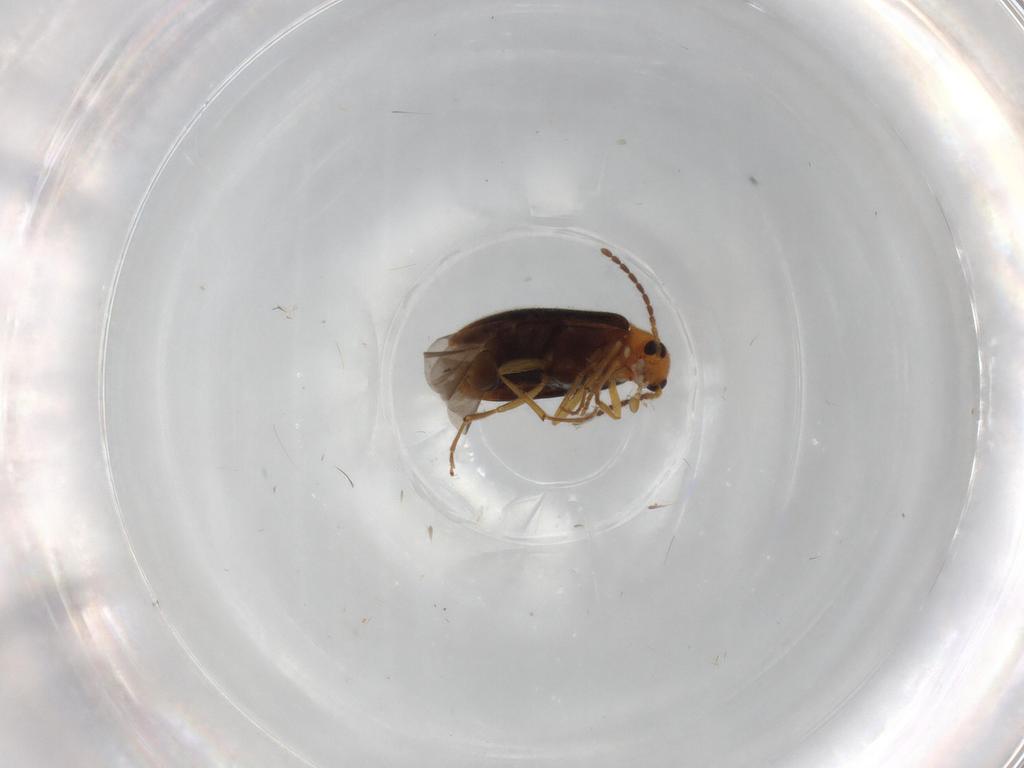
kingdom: Animalia
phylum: Arthropoda
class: Insecta
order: Coleoptera
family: Melandryidae
